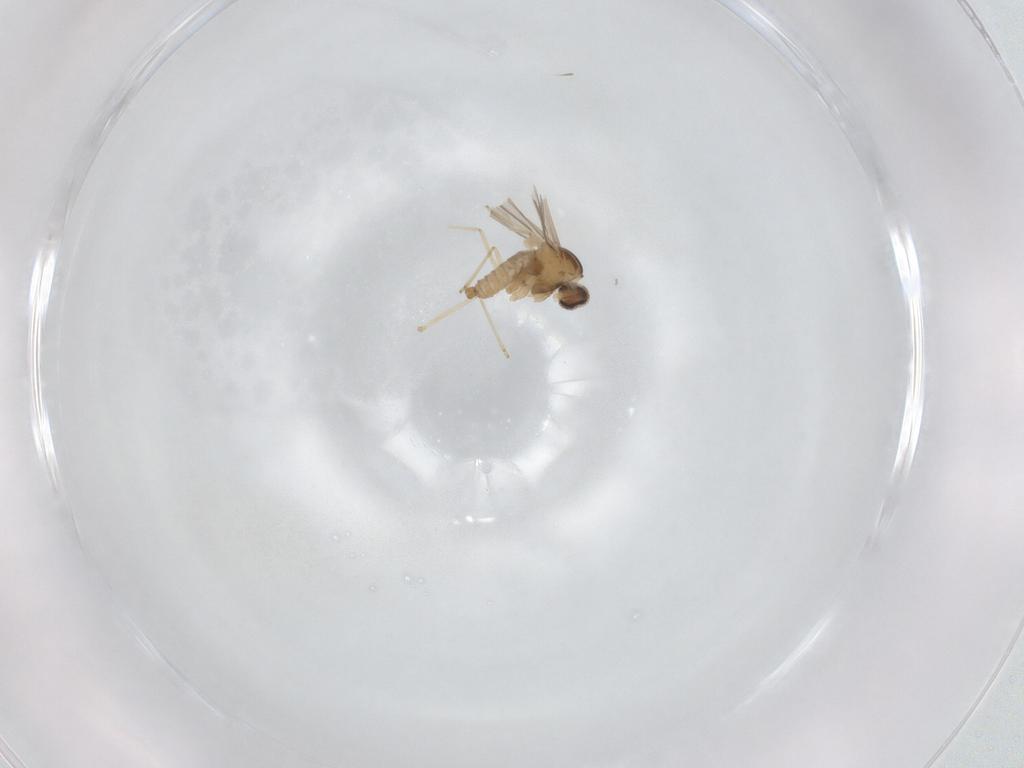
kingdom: Animalia
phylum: Arthropoda
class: Insecta
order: Diptera
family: Cecidomyiidae
